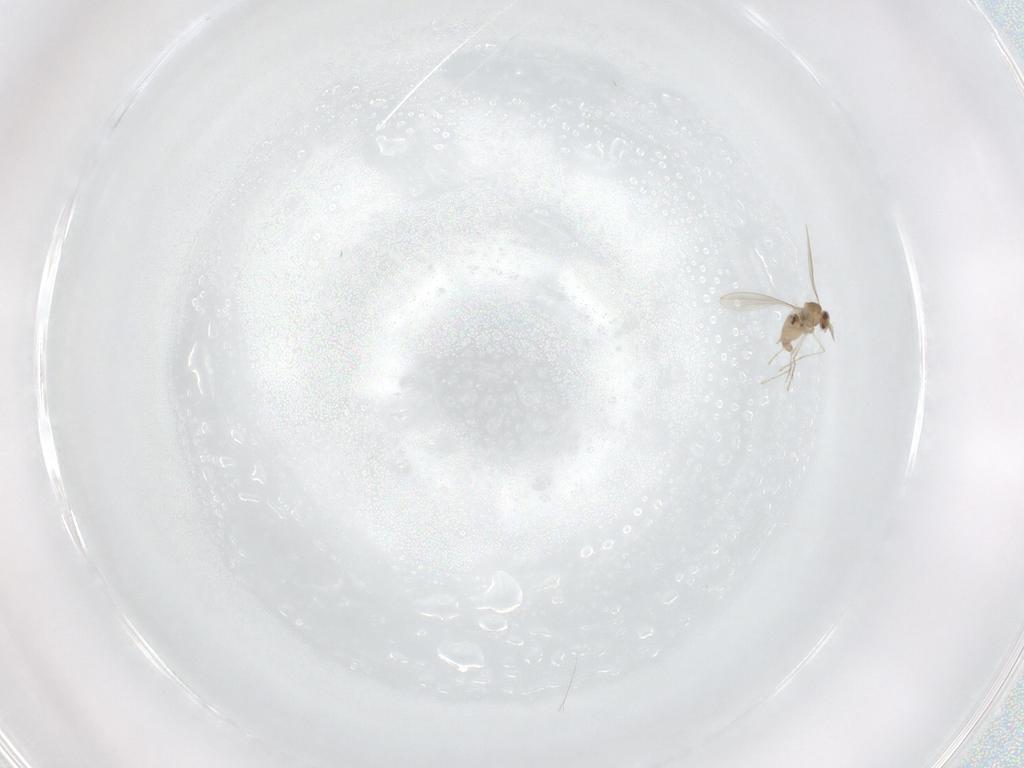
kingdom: Animalia
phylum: Arthropoda
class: Insecta
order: Diptera
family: Cecidomyiidae
